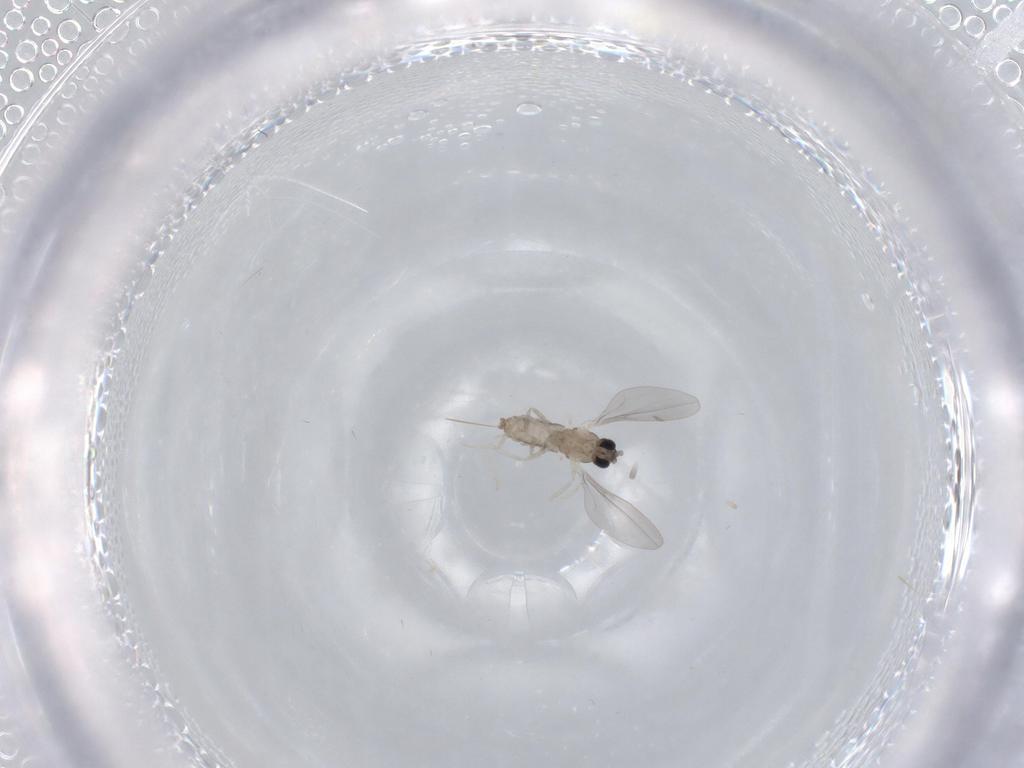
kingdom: Animalia
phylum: Arthropoda
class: Insecta
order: Diptera
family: Cecidomyiidae
